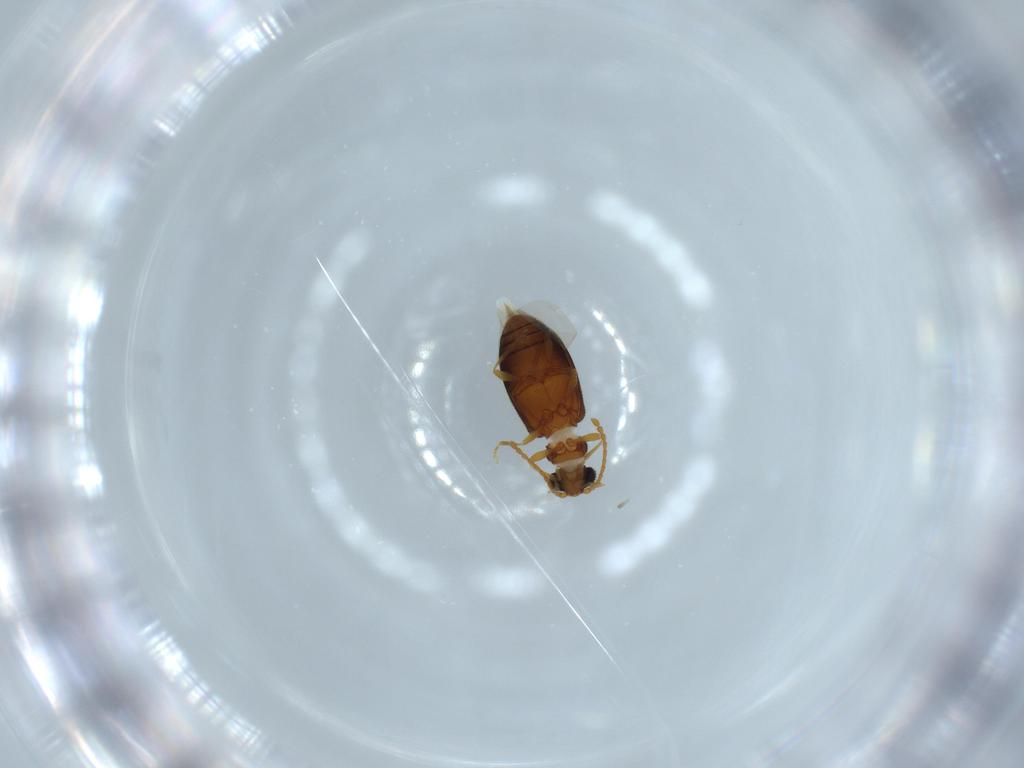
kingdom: Animalia
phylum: Arthropoda
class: Insecta
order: Coleoptera
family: Aderidae
